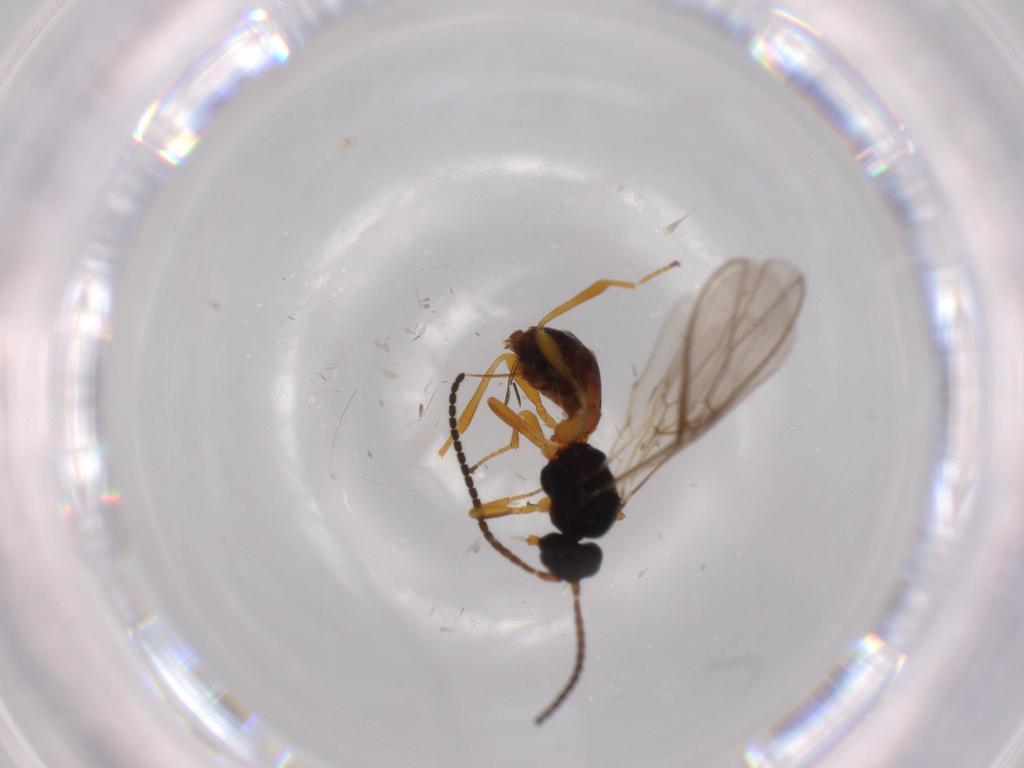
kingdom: Animalia
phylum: Arthropoda
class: Insecta
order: Hymenoptera
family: Braconidae
